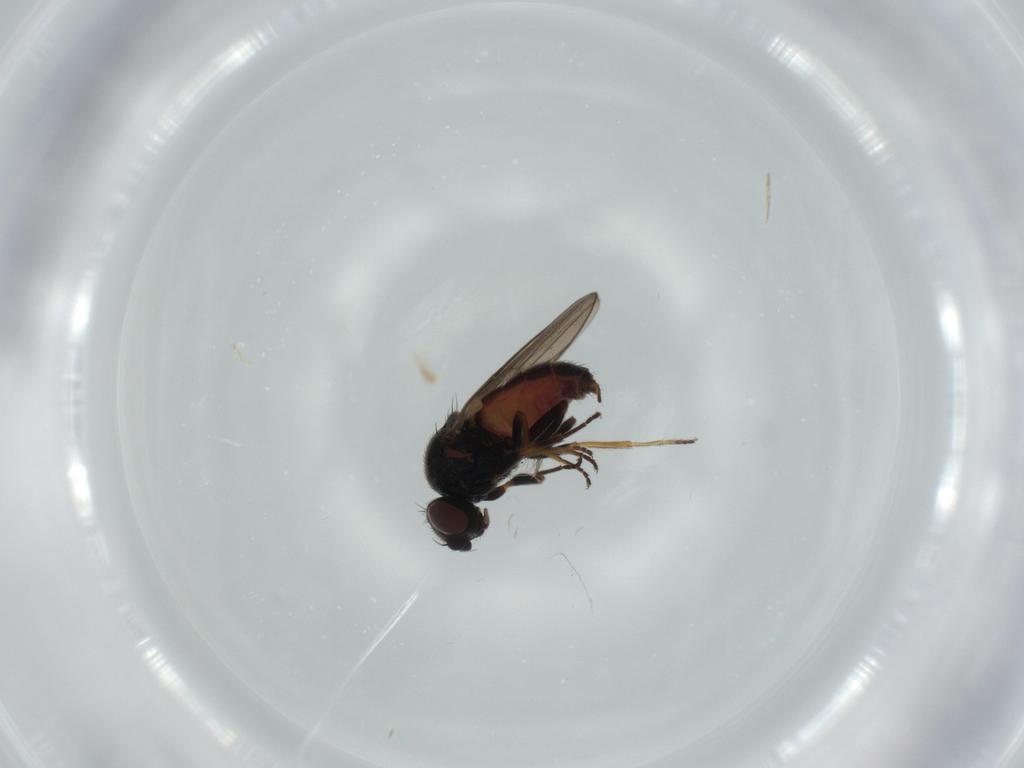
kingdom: Animalia
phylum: Arthropoda
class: Insecta
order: Diptera
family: Chloropidae
